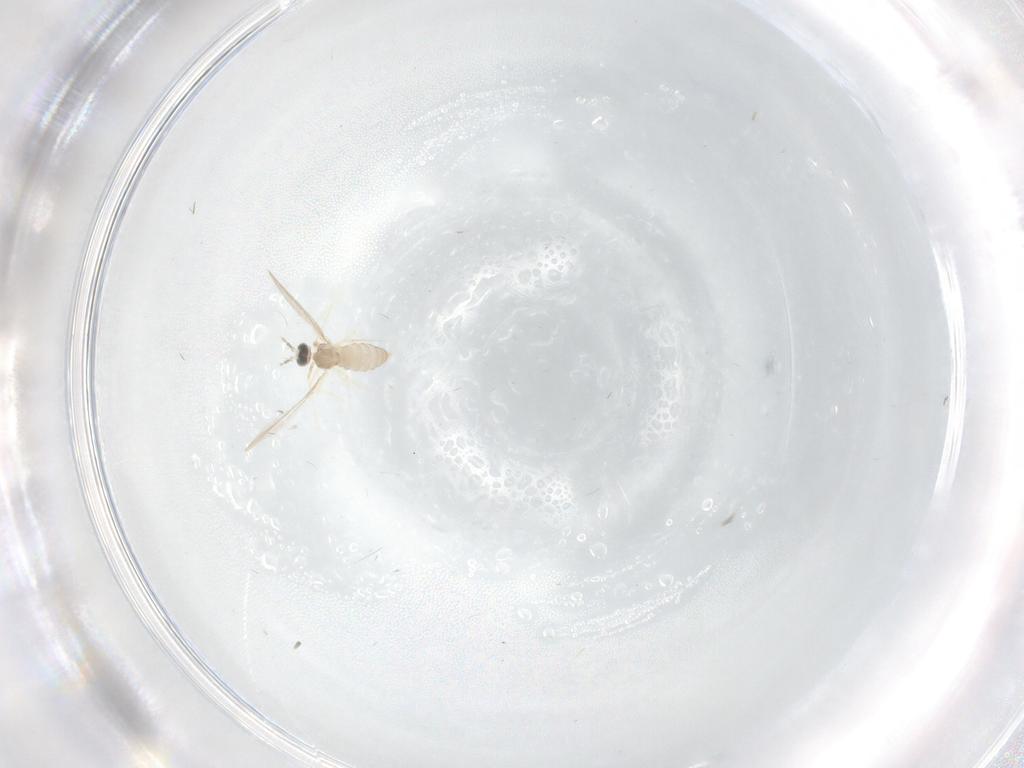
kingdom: Animalia
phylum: Arthropoda
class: Insecta
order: Diptera
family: Cecidomyiidae
